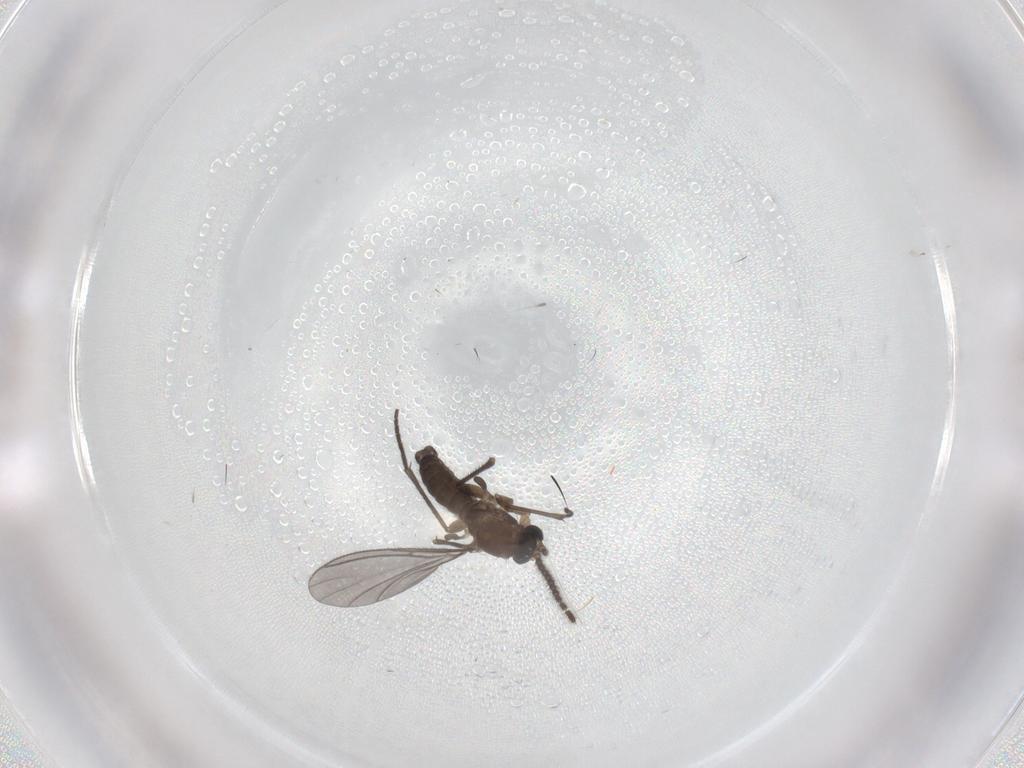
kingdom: Animalia
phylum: Arthropoda
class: Insecta
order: Diptera
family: Sciaridae
